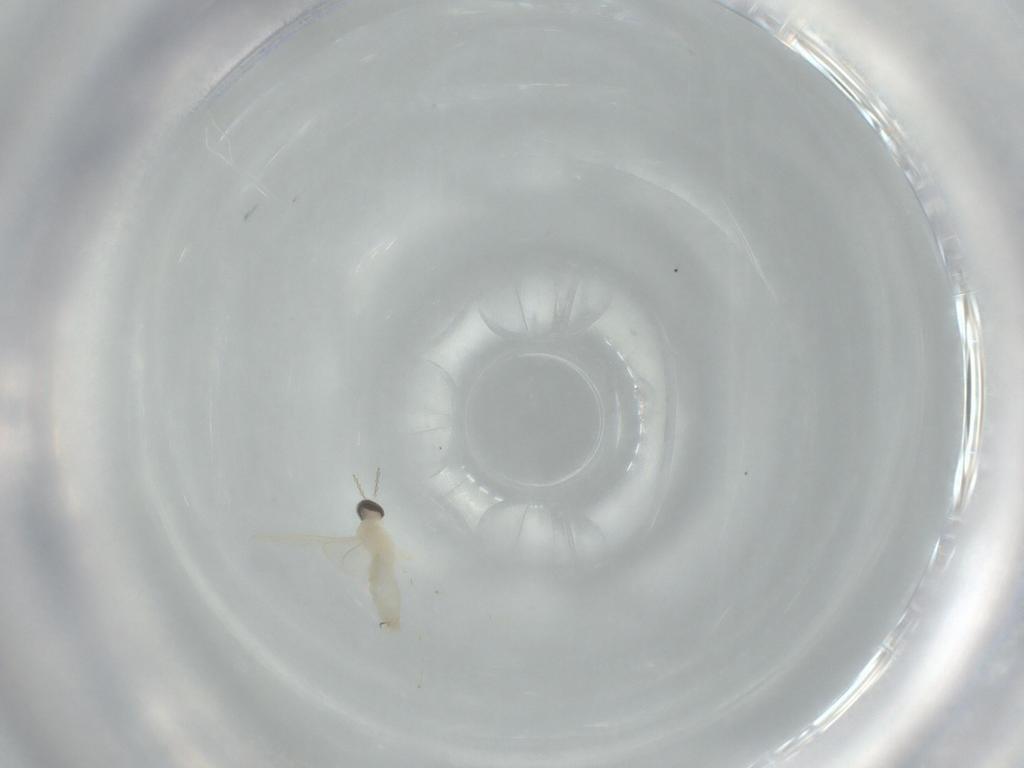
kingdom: Animalia
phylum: Arthropoda
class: Insecta
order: Diptera
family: Cecidomyiidae
